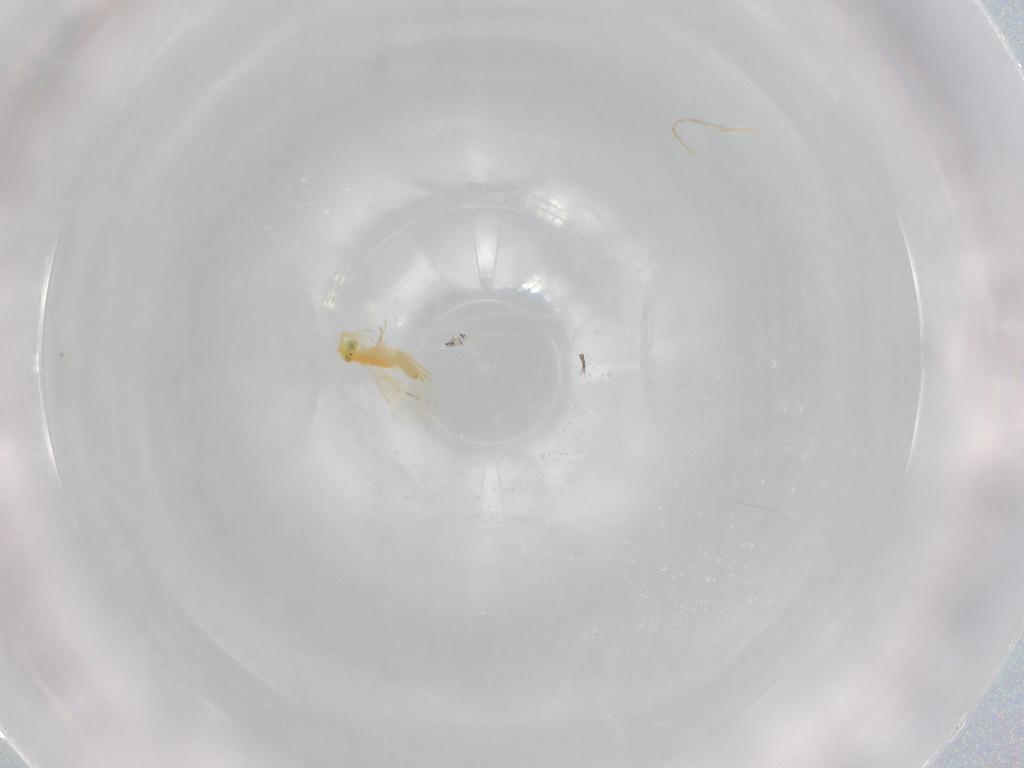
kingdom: Animalia
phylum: Arthropoda
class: Insecta
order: Hymenoptera
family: Aphelinidae
